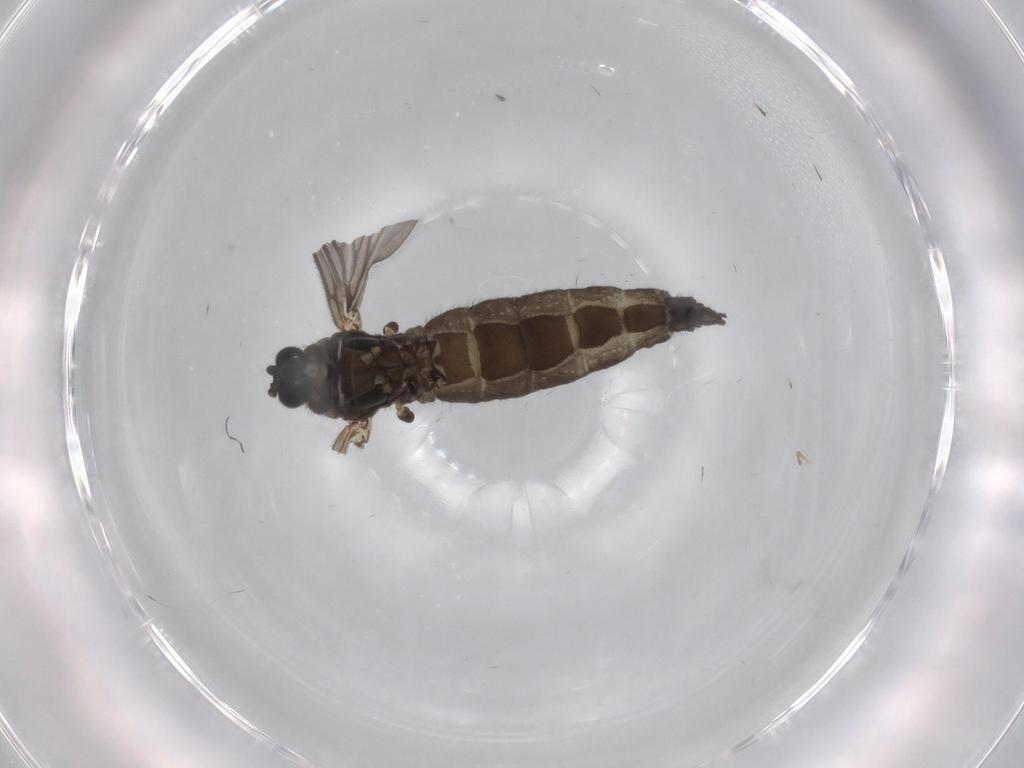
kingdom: Animalia
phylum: Arthropoda
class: Insecta
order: Diptera
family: Sciaridae
